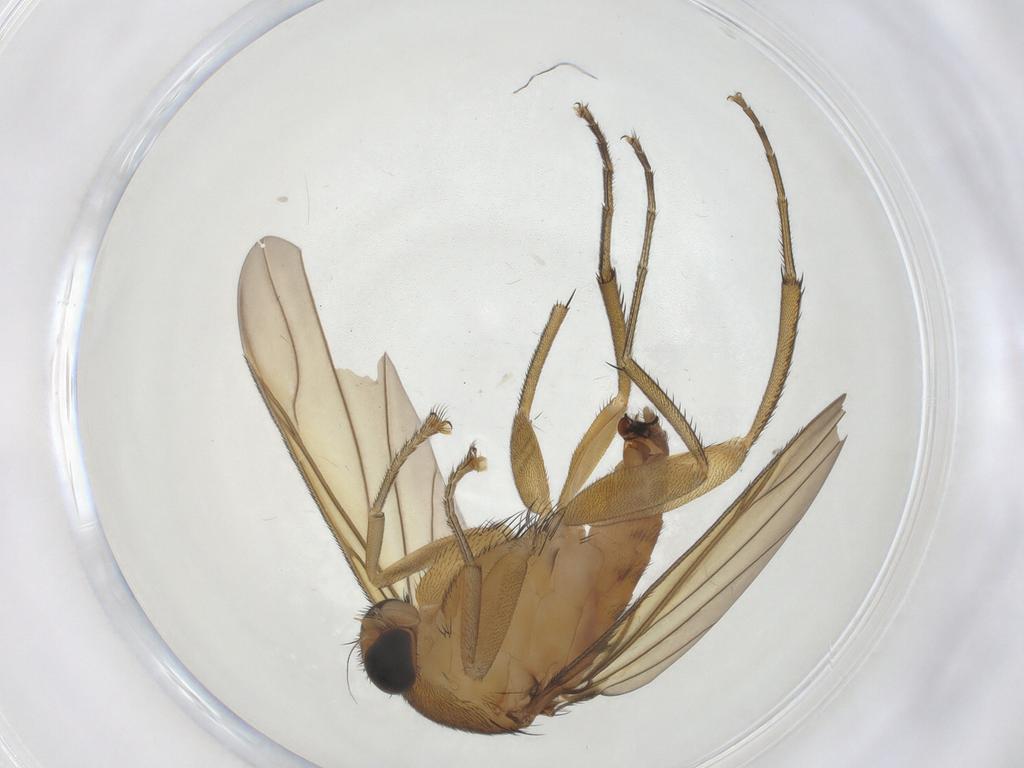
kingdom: Animalia
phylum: Arthropoda
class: Insecta
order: Diptera
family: Phoridae
